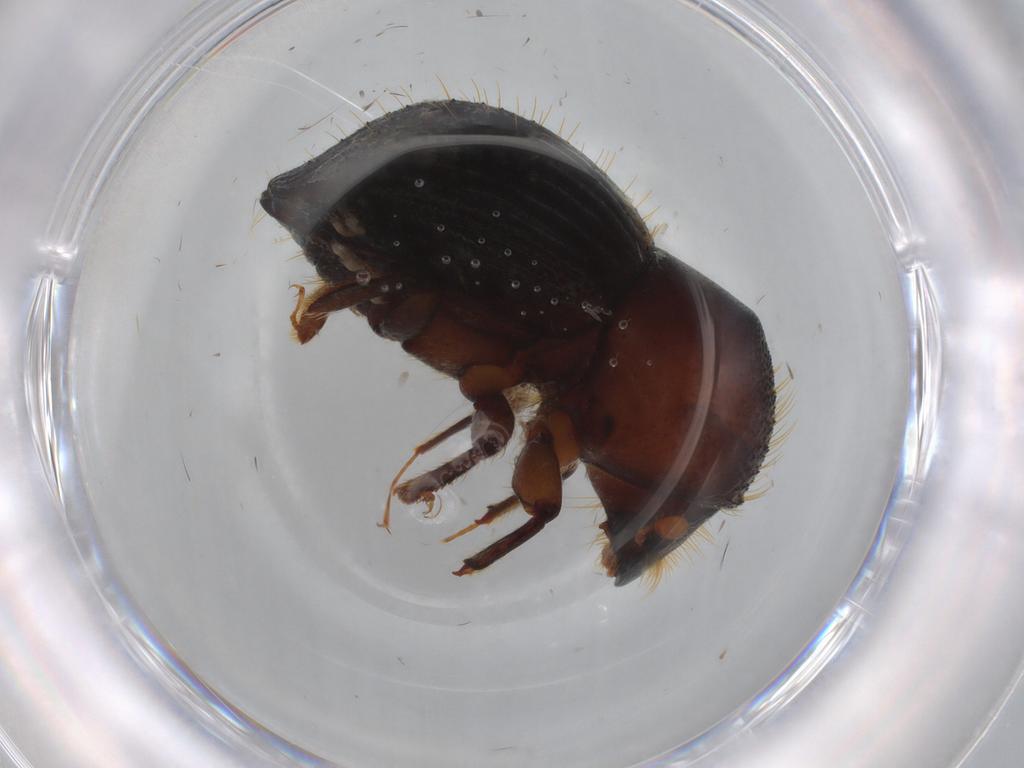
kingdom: Animalia
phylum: Arthropoda
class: Insecta
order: Coleoptera
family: Curculionidae
